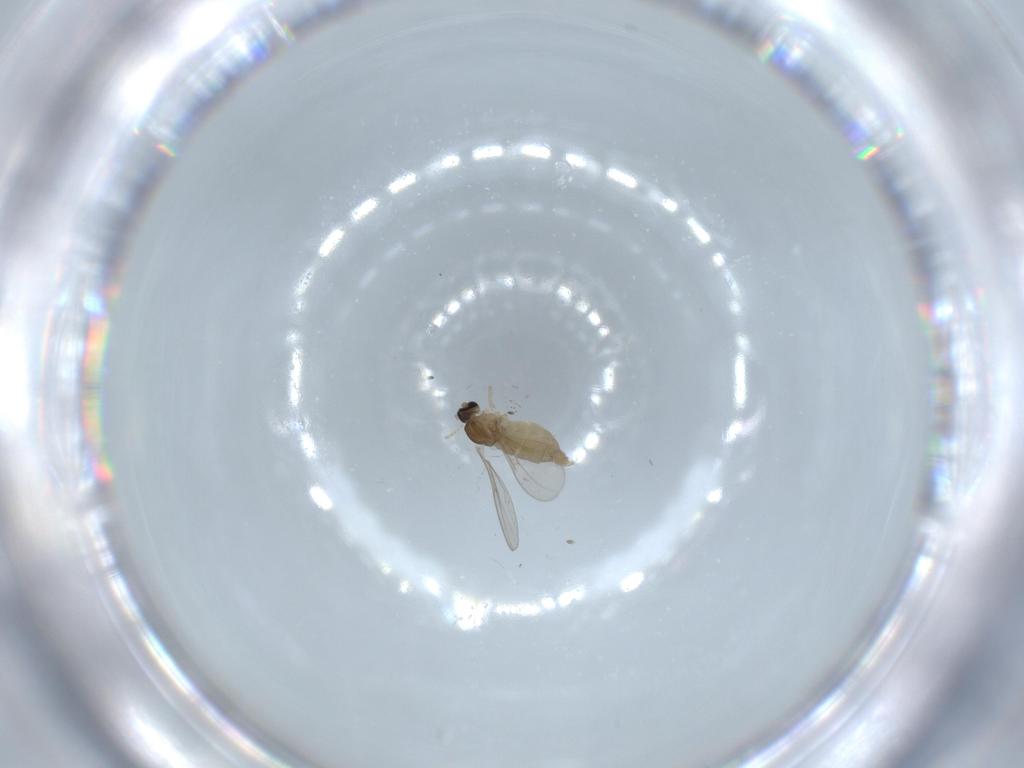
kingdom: Animalia
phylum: Arthropoda
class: Insecta
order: Diptera
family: Cecidomyiidae
